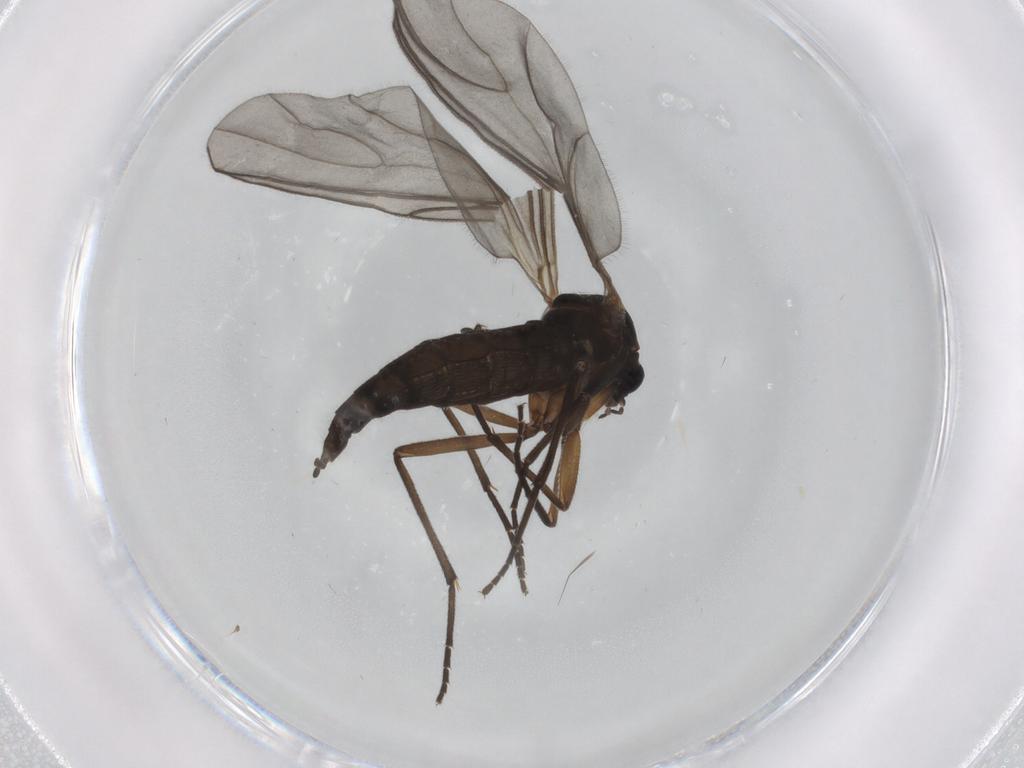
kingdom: Animalia
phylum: Arthropoda
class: Insecta
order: Diptera
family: Sciaridae
